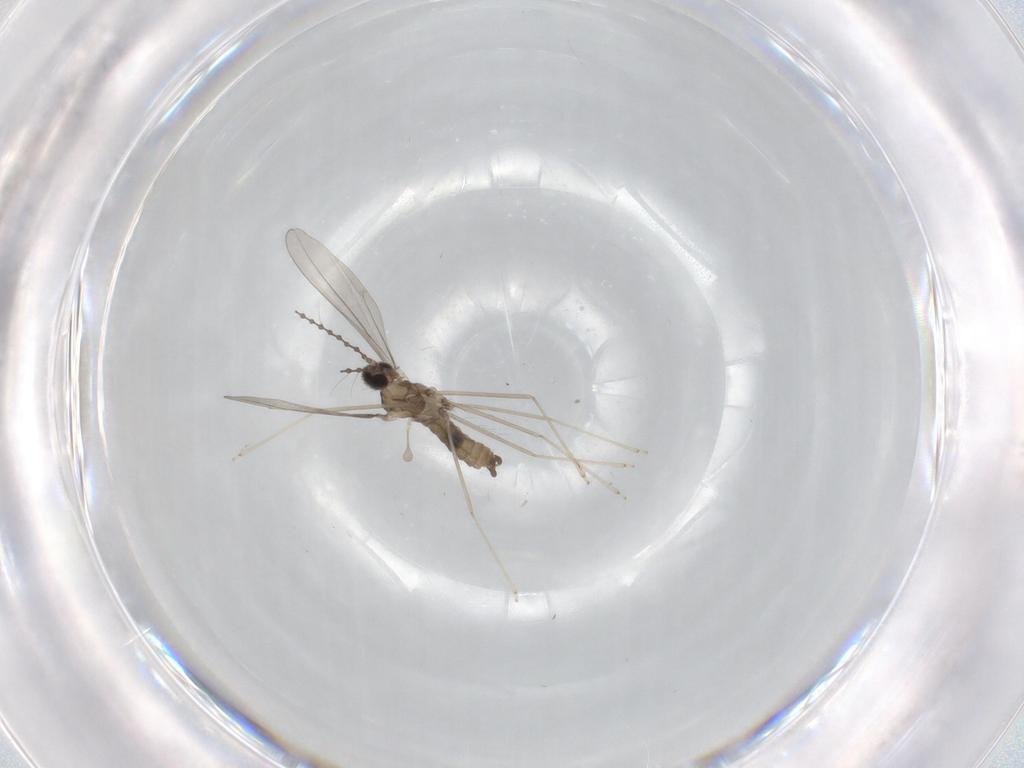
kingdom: Animalia
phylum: Arthropoda
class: Insecta
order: Diptera
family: Cecidomyiidae
